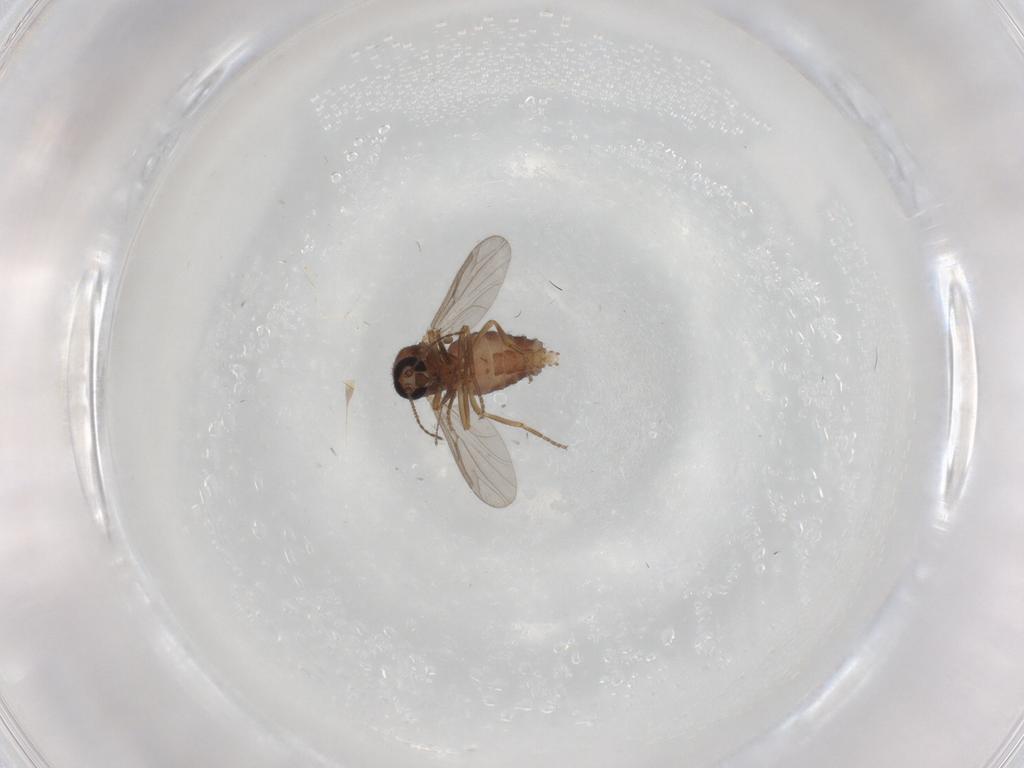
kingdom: Animalia
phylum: Arthropoda
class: Insecta
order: Diptera
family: Ceratopogonidae
